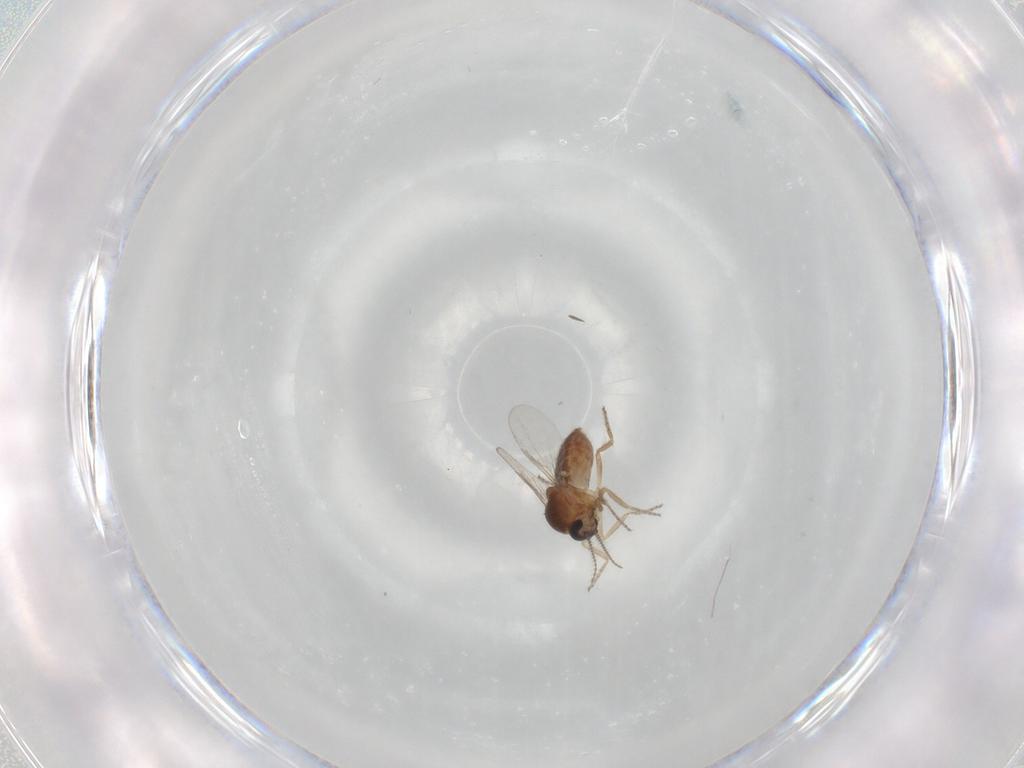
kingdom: Animalia
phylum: Arthropoda
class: Insecta
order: Diptera
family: Ceratopogonidae
